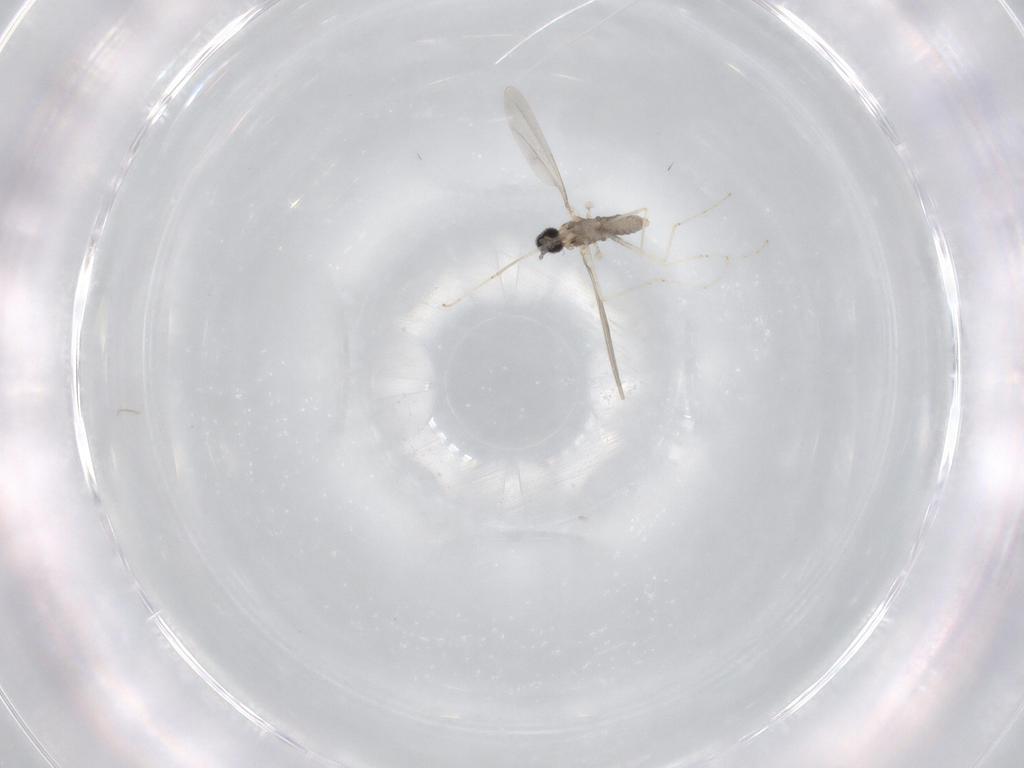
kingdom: Animalia
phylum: Arthropoda
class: Insecta
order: Diptera
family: Cecidomyiidae
